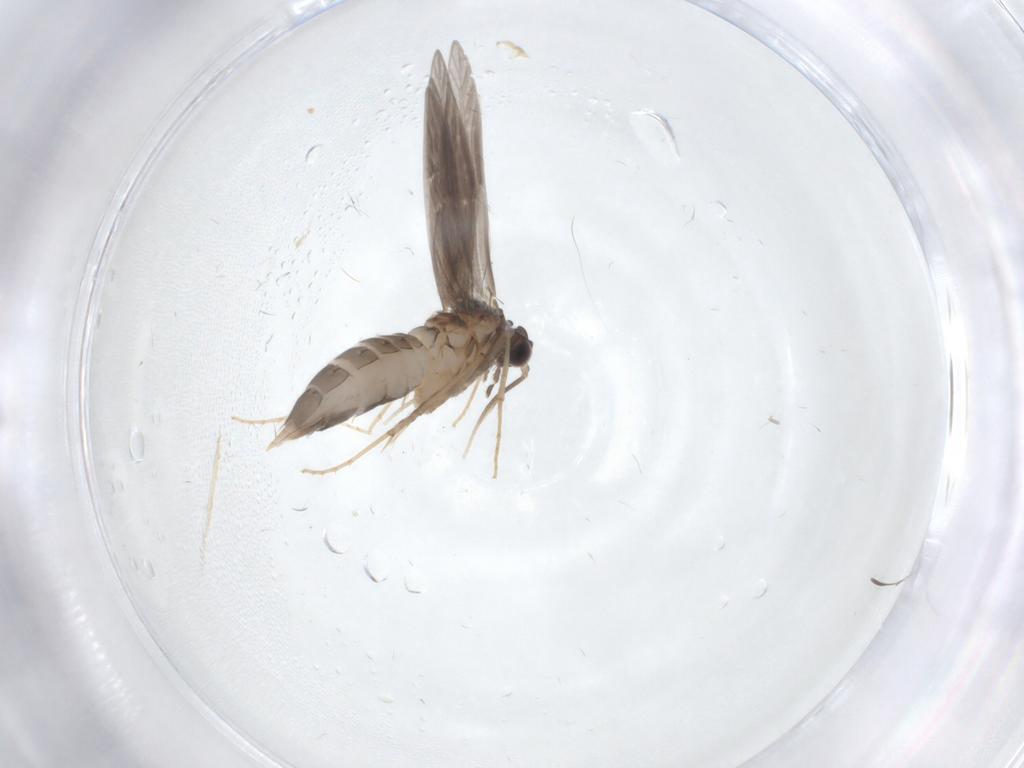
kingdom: Animalia
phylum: Arthropoda
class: Insecta
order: Trichoptera
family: Hydroptilidae
